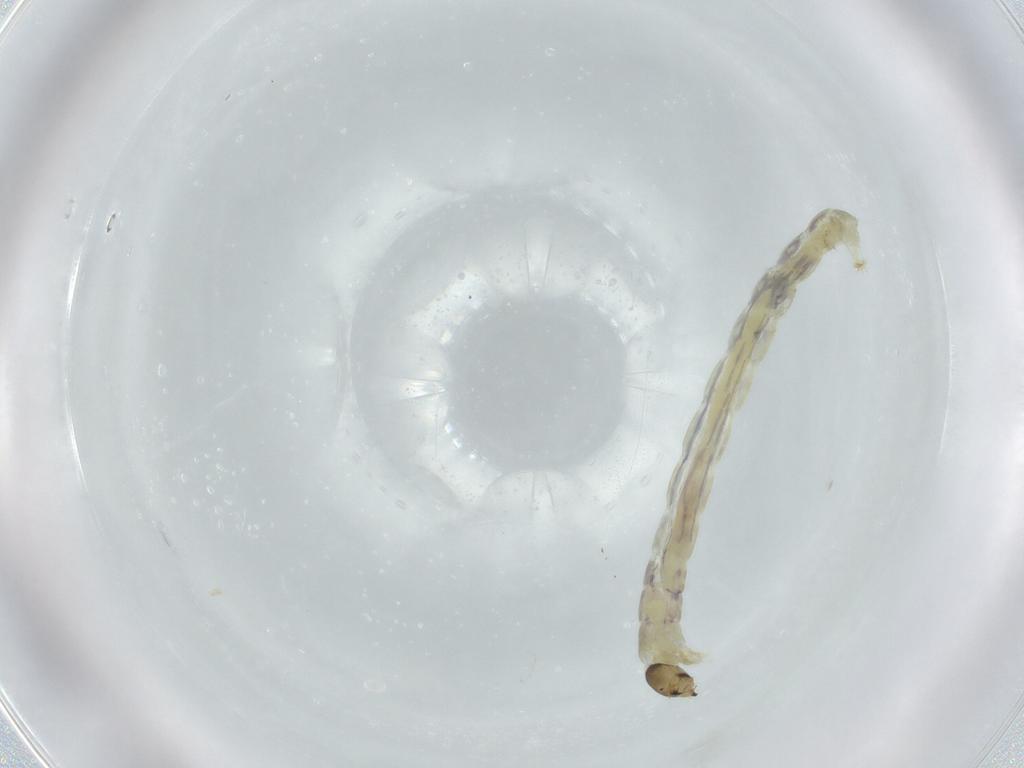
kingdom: Animalia
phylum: Arthropoda
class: Insecta
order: Diptera
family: Chironomidae
